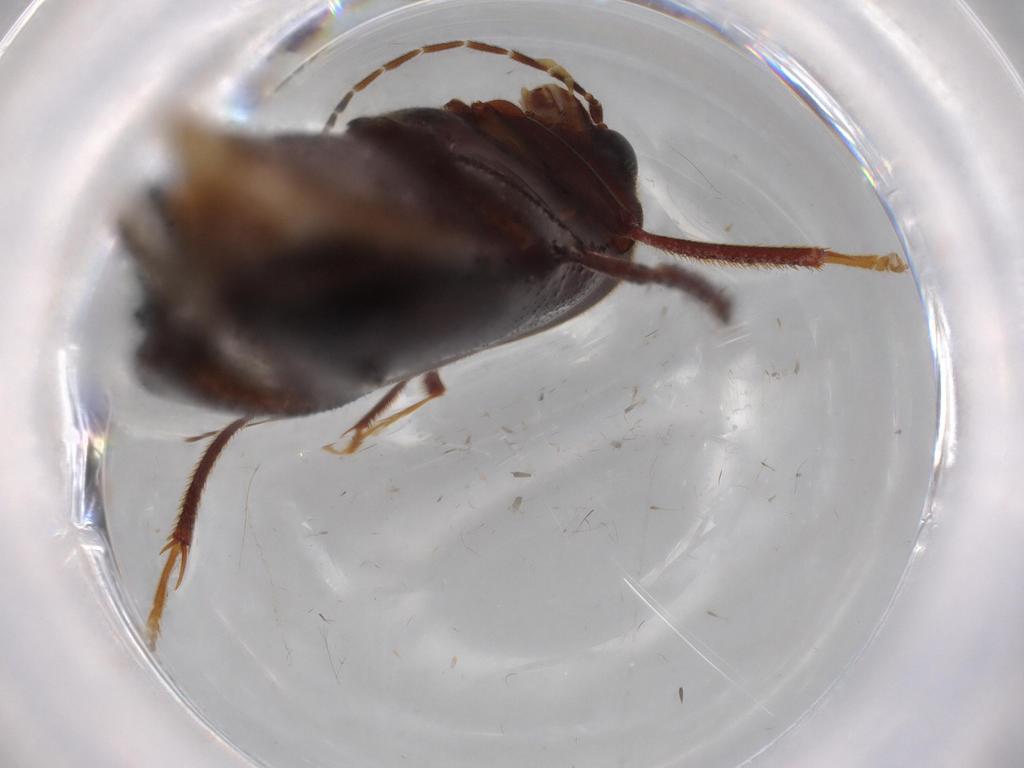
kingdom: Animalia
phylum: Arthropoda
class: Insecta
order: Coleoptera
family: Ptilodactylidae
